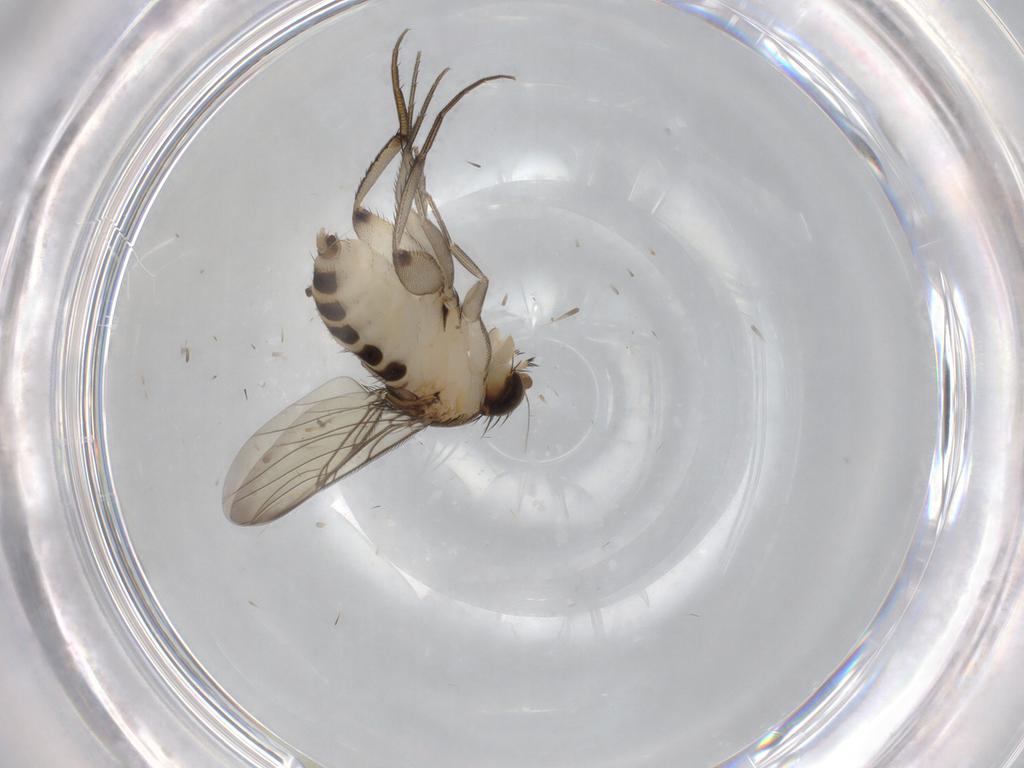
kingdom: Animalia
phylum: Arthropoda
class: Insecta
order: Diptera
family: Phoridae
